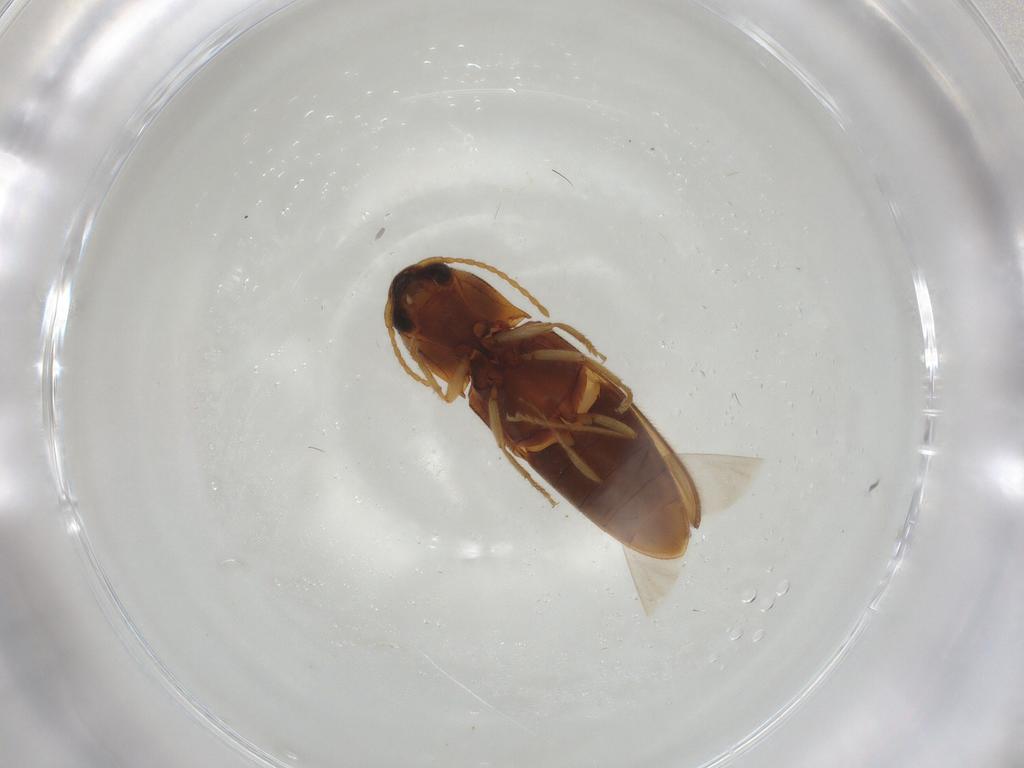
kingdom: Animalia
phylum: Arthropoda
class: Insecta
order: Coleoptera
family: Elateridae
